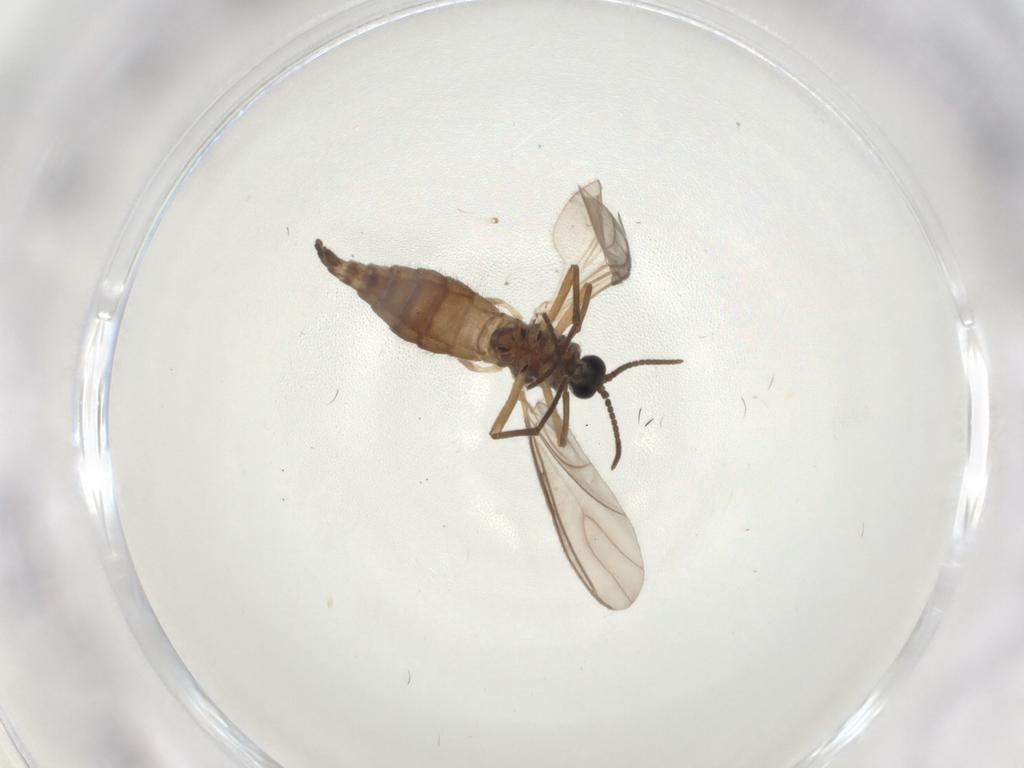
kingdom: Animalia
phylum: Arthropoda
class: Insecta
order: Diptera
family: Sciaridae
